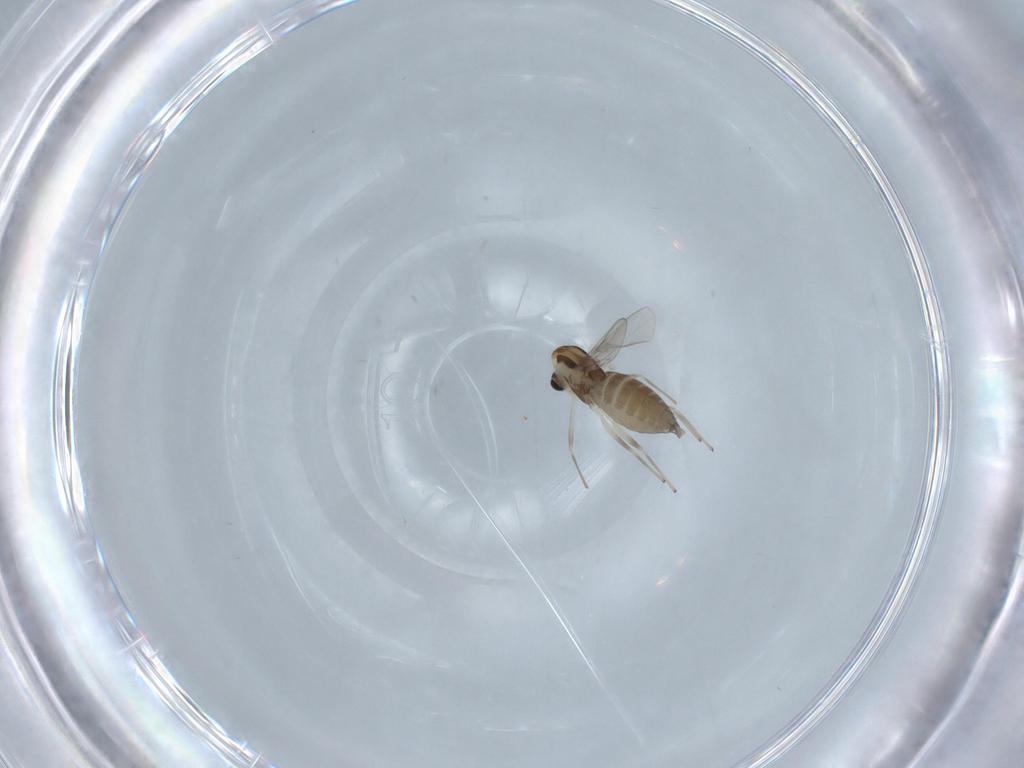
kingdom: Animalia
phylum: Arthropoda
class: Insecta
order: Diptera
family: Chironomidae
